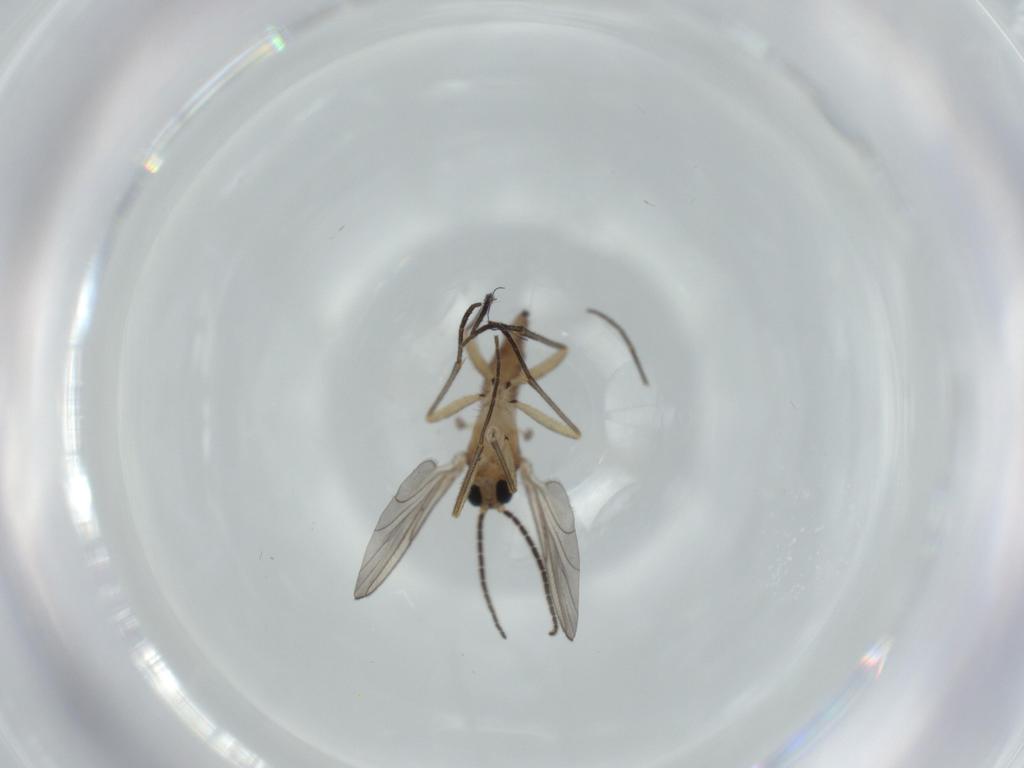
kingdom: Animalia
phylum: Arthropoda
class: Insecta
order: Diptera
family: Sciaridae
